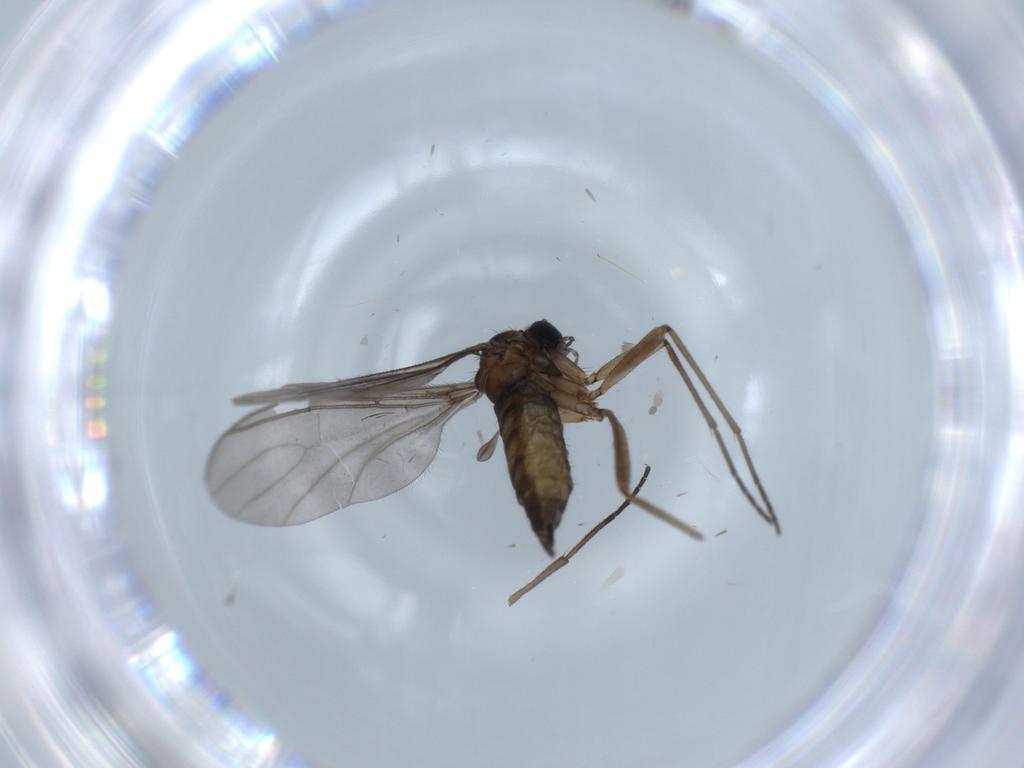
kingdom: Animalia
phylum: Arthropoda
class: Insecta
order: Diptera
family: Sciaridae
